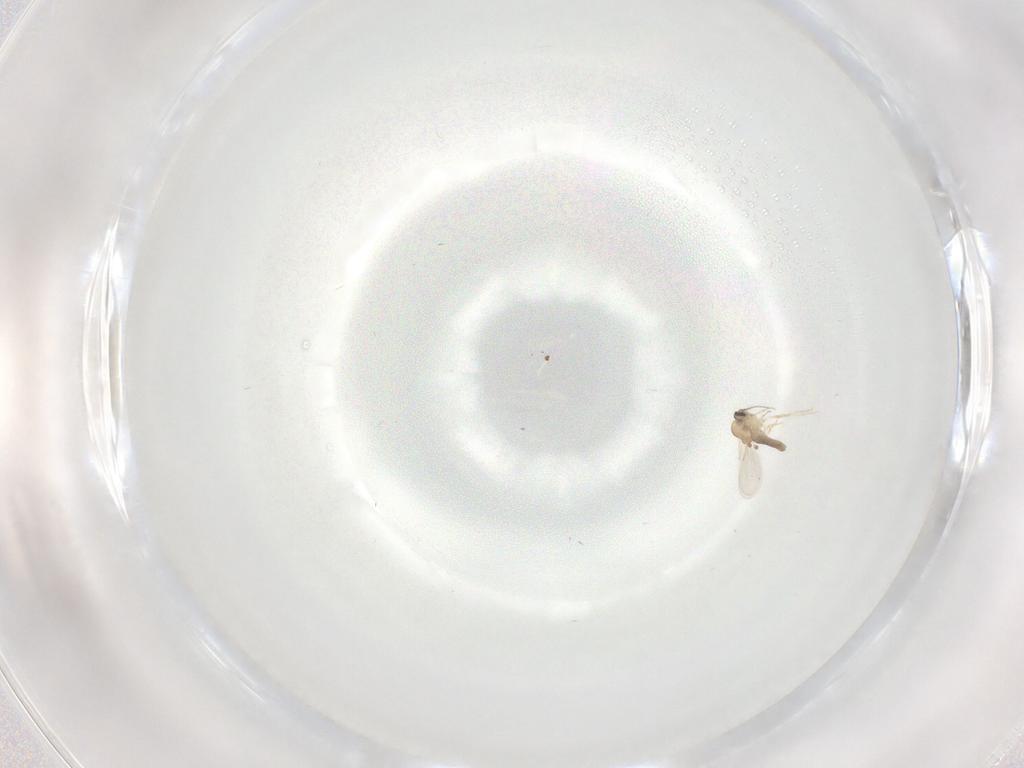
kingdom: Animalia
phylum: Arthropoda
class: Insecta
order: Diptera
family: Chironomidae
